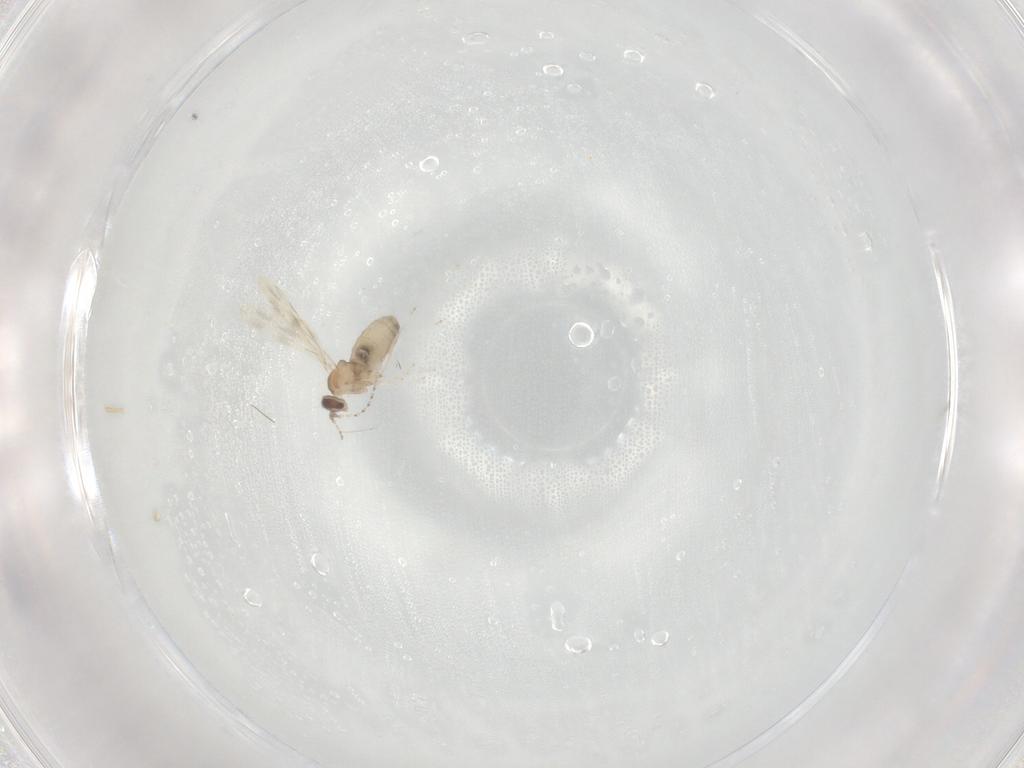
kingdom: Animalia
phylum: Arthropoda
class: Insecta
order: Diptera
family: Cecidomyiidae
